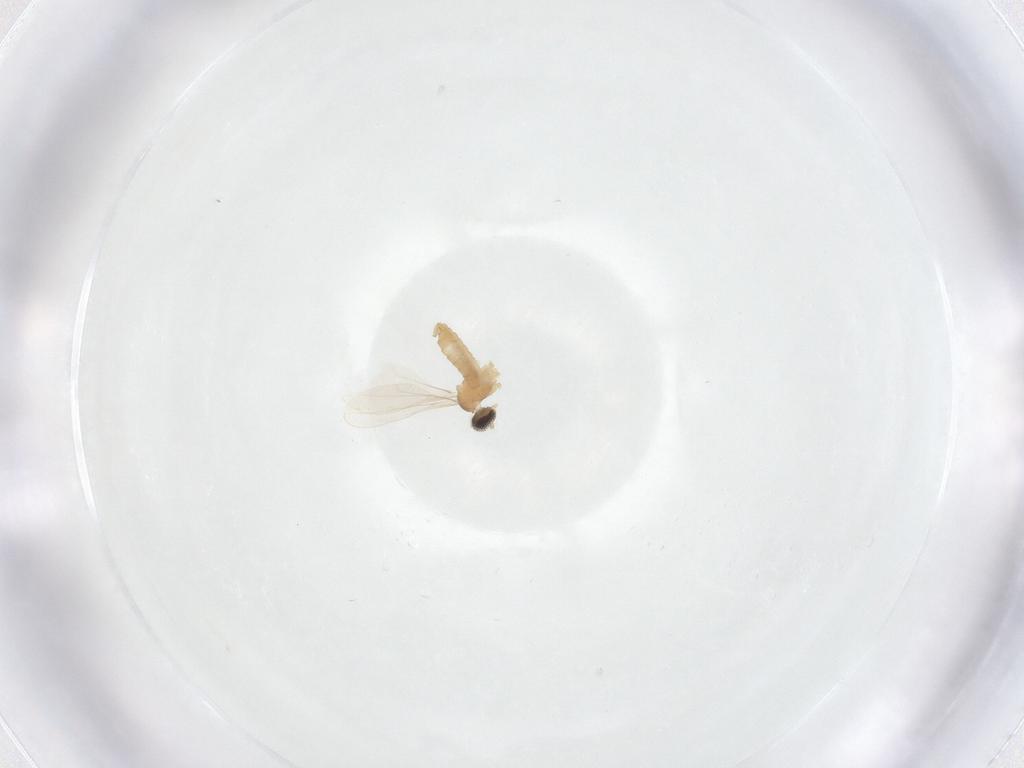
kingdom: Animalia
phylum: Arthropoda
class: Insecta
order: Diptera
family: Cecidomyiidae
